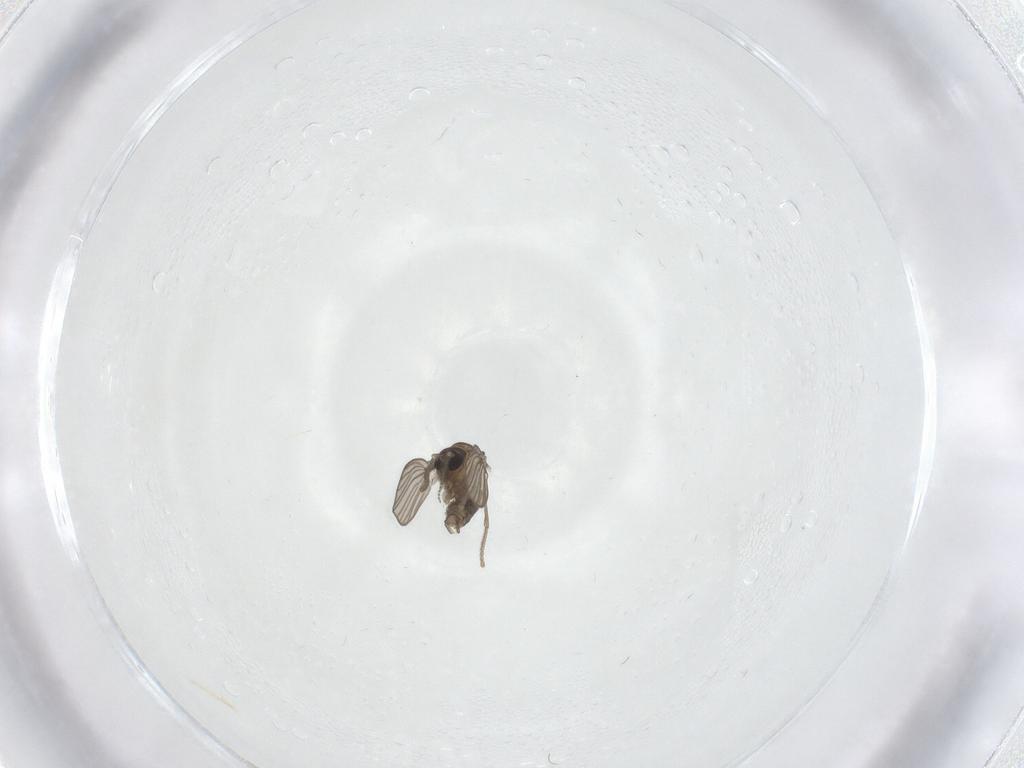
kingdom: Animalia
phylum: Arthropoda
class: Insecta
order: Diptera
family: Psychodidae
